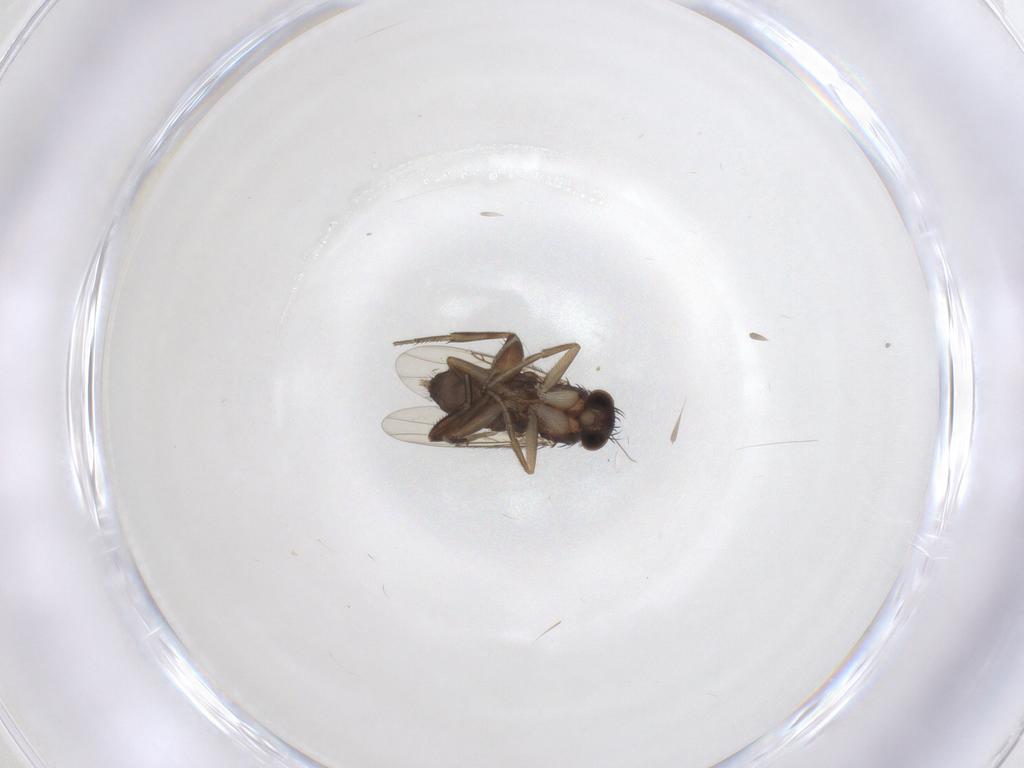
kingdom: Animalia
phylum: Arthropoda
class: Insecta
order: Diptera
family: Phoridae
